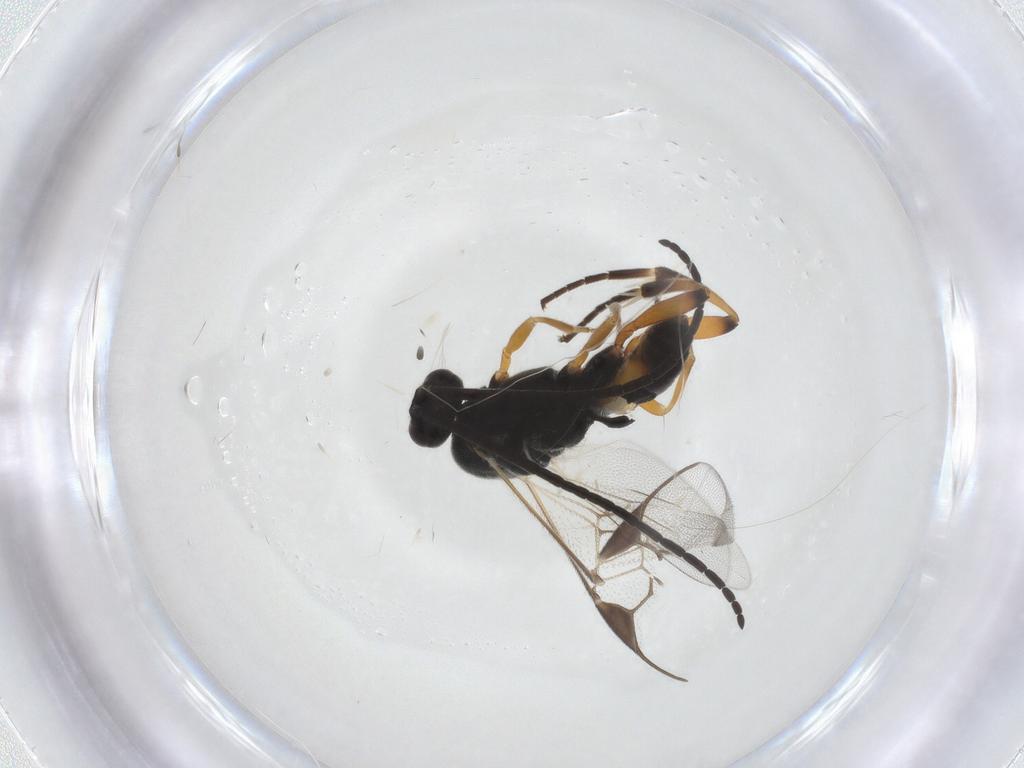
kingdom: Animalia
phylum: Arthropoda
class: Insecta
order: Hymenoptera
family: Braconidae
